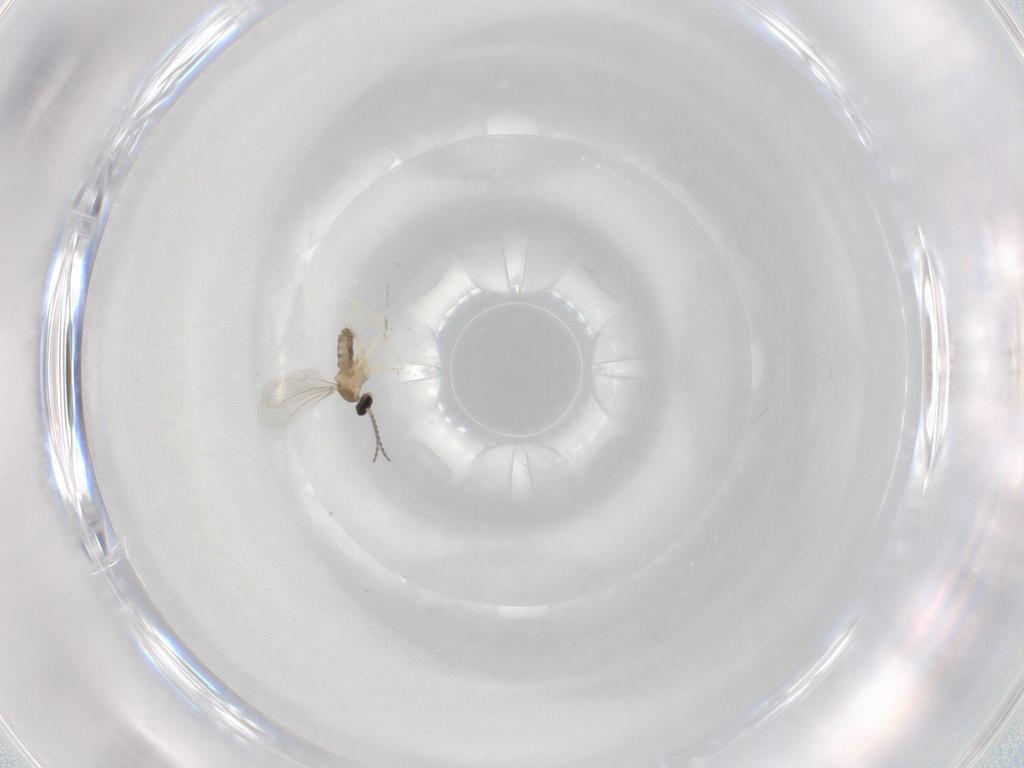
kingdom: Animalia
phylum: Arthropoda
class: Insecta
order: Diptera
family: Cecidomyiidae
